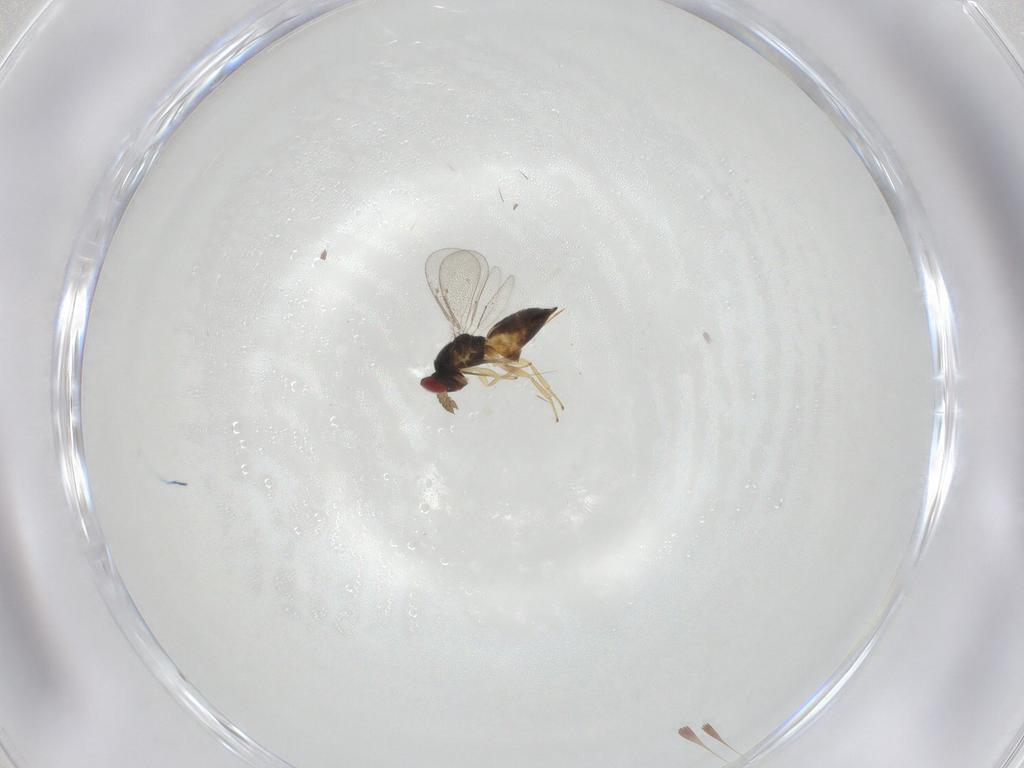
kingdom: Animalia
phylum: Arthropoda
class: Insecta
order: Hymenoptera
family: Eulophidae
